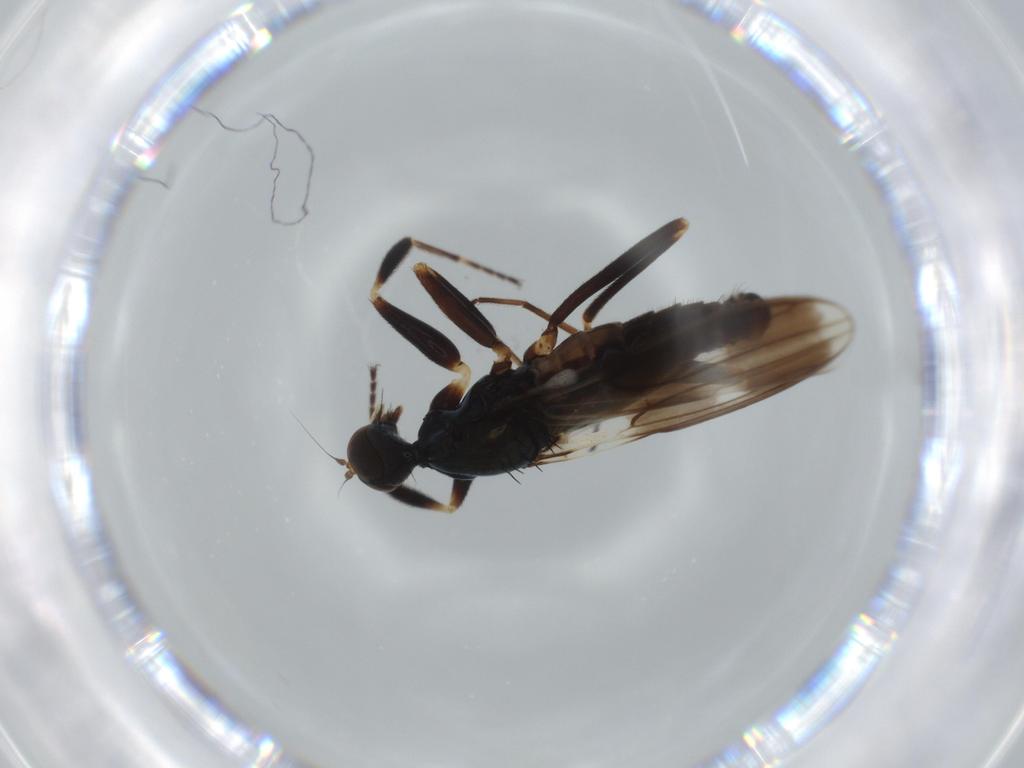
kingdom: Animalia
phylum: Arthropoda
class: Insecta
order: Diptera
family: Hybotidae
